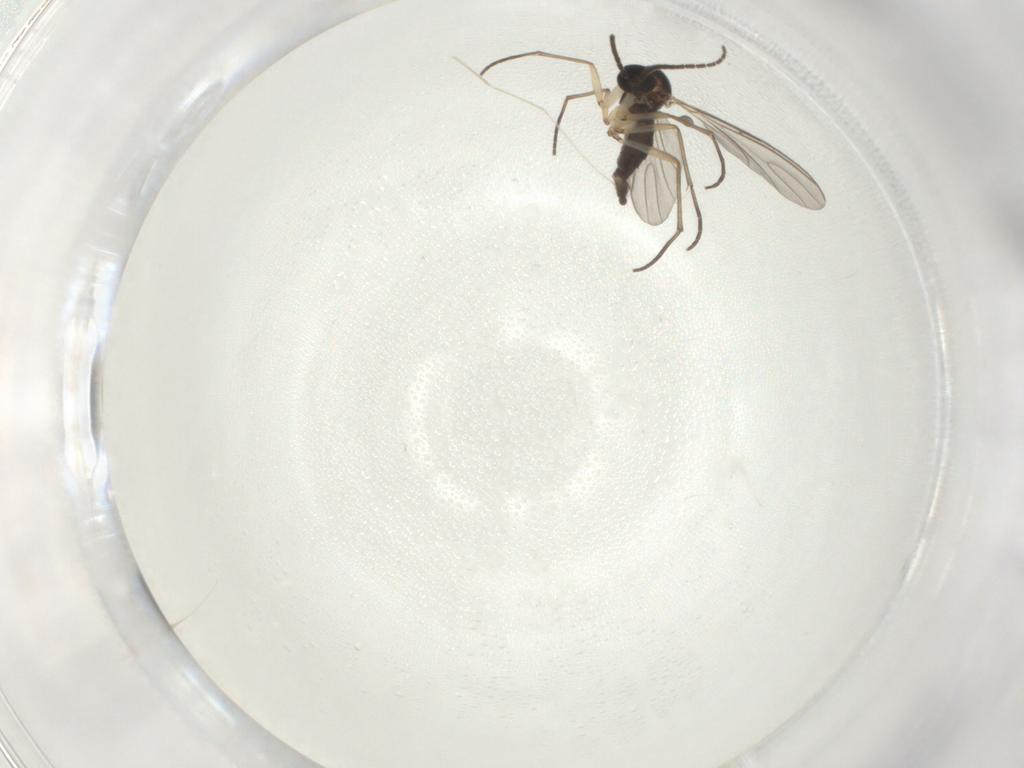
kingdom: Animalia
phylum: Arthropoda
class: Insecta
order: Diptera
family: Sciaridae
